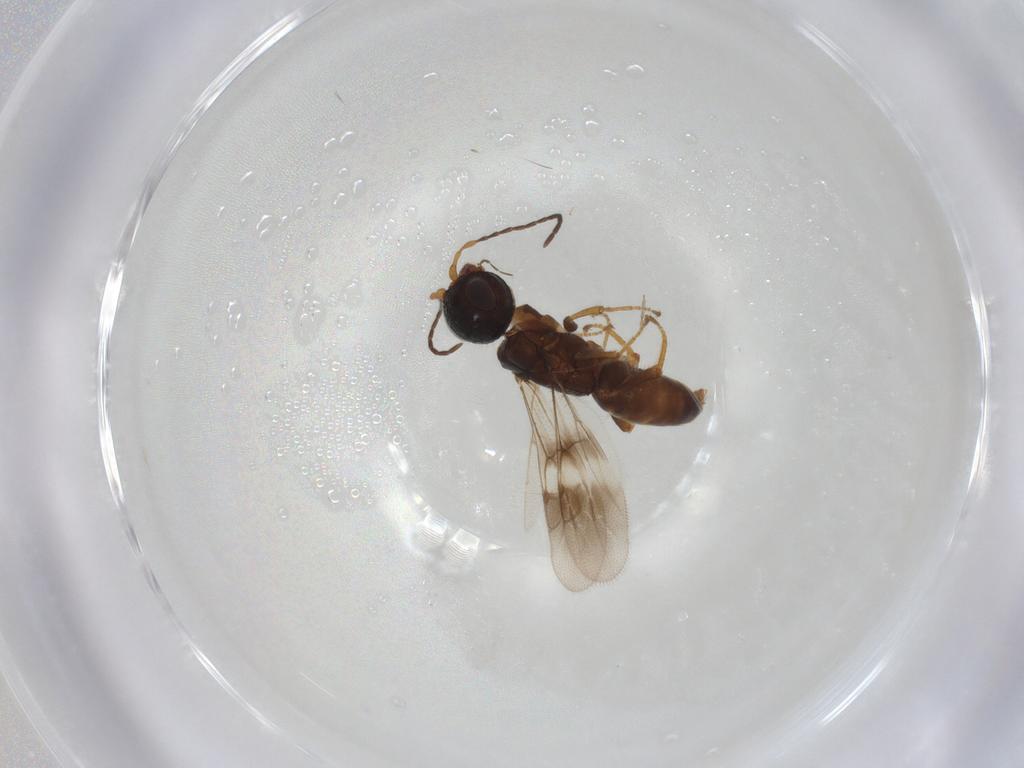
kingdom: Animalia
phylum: Arthropoda
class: Insecta
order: Hymenoptera
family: Megalyridae
